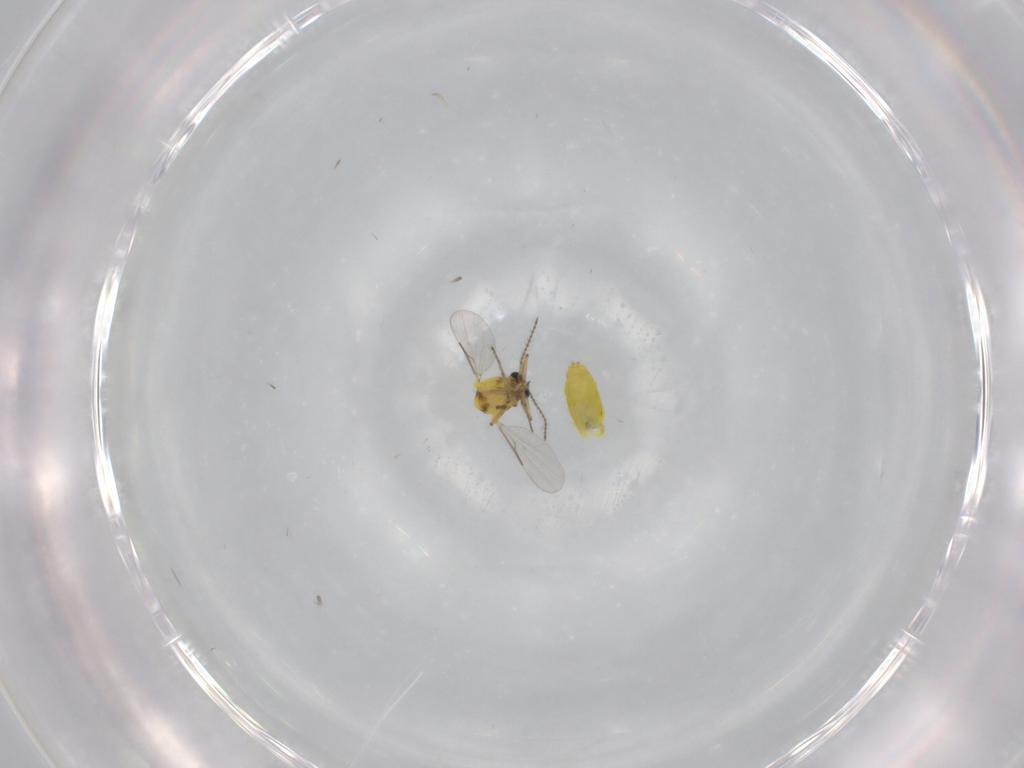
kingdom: Animalia
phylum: Arthropoda
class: Insecta
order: Diptera
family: Ceratopogonidae
